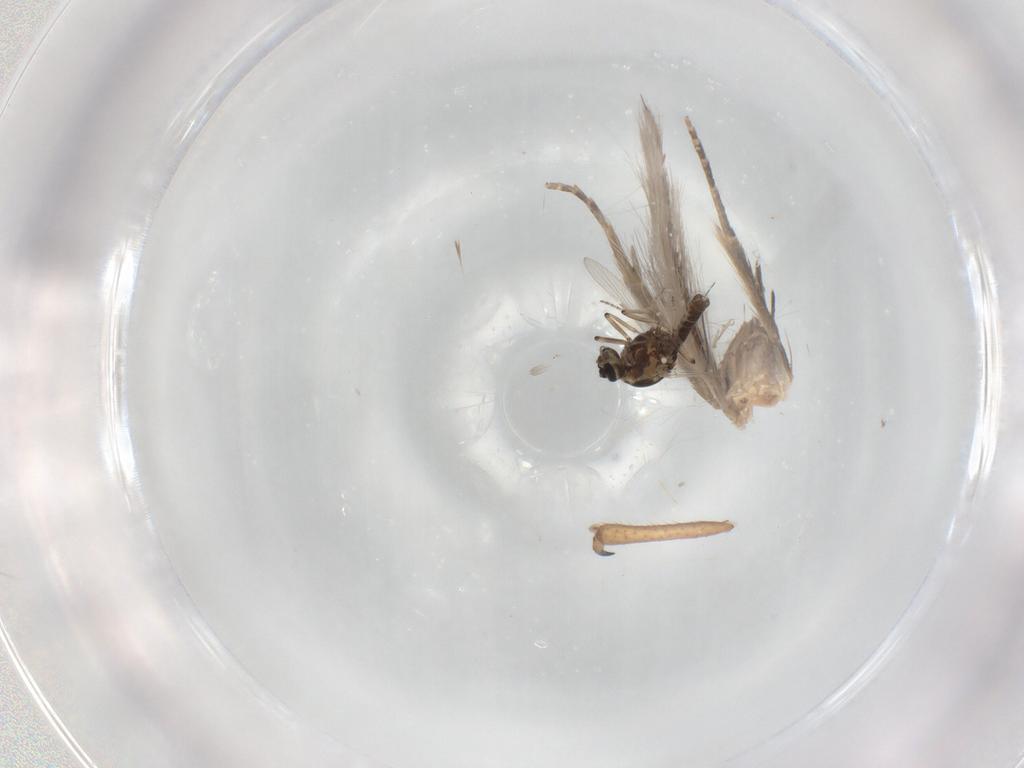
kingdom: Animalia
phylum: Arthropoda
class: Insecta
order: Diptera
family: Ceratopogonidae
